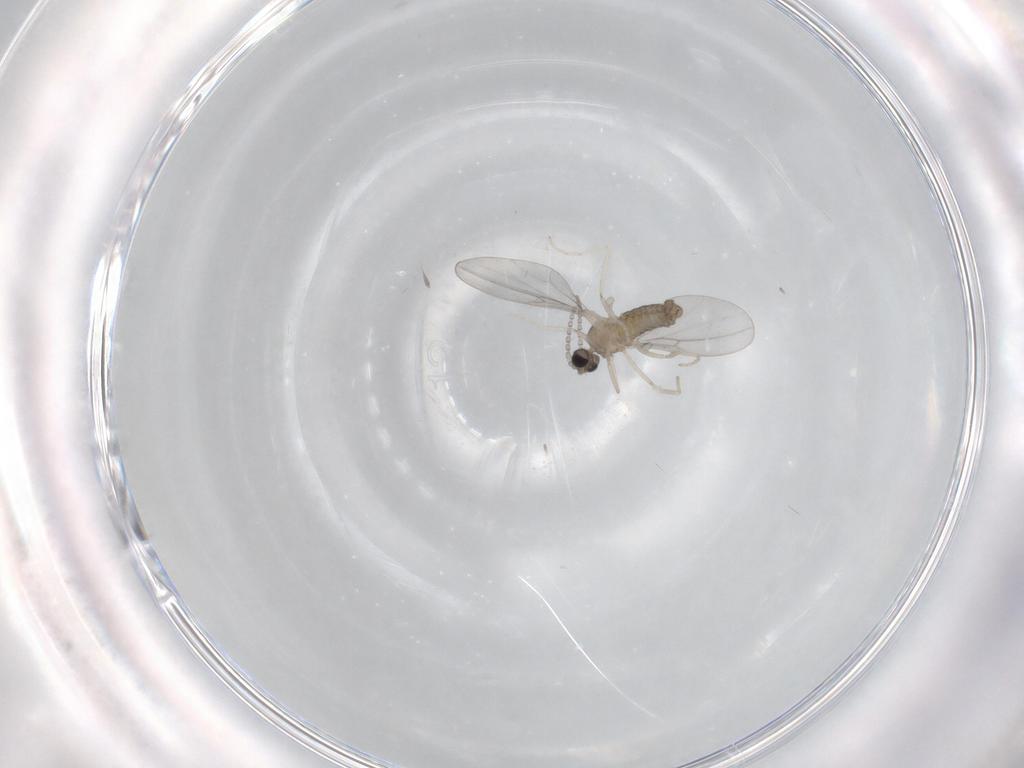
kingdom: Animalia
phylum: Arthropoda
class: Insecta
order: Diptera
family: Cecidomyiidae
